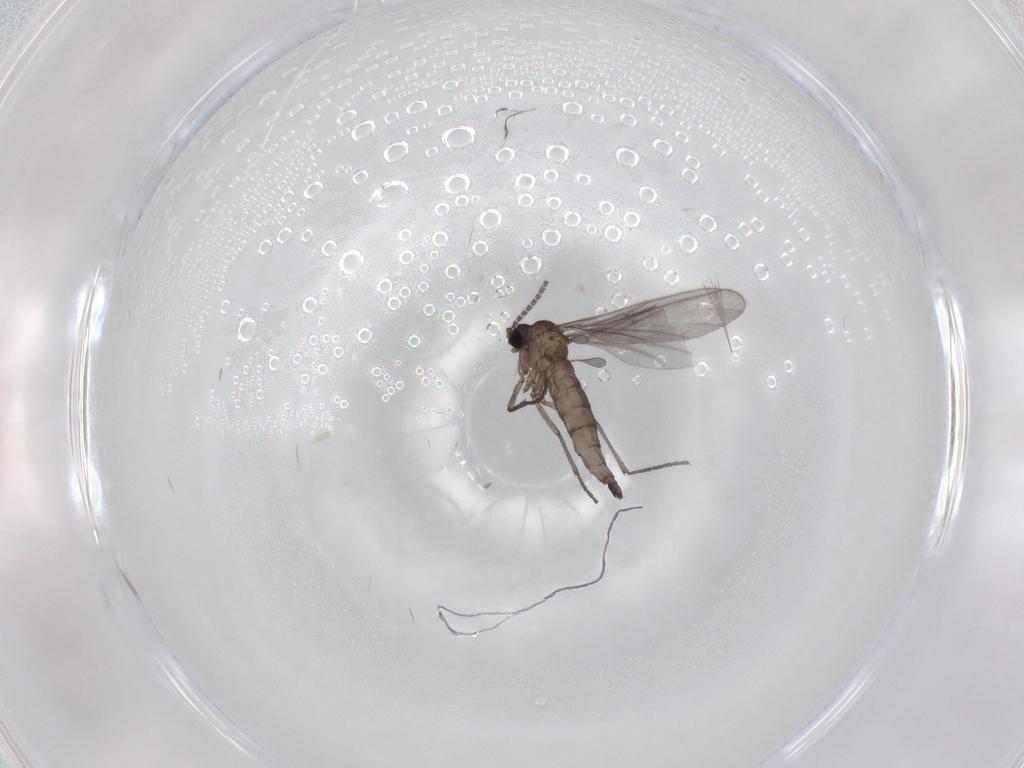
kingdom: Animalia
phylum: Arthropoda
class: Insecta
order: Diptera
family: Sciaridae
